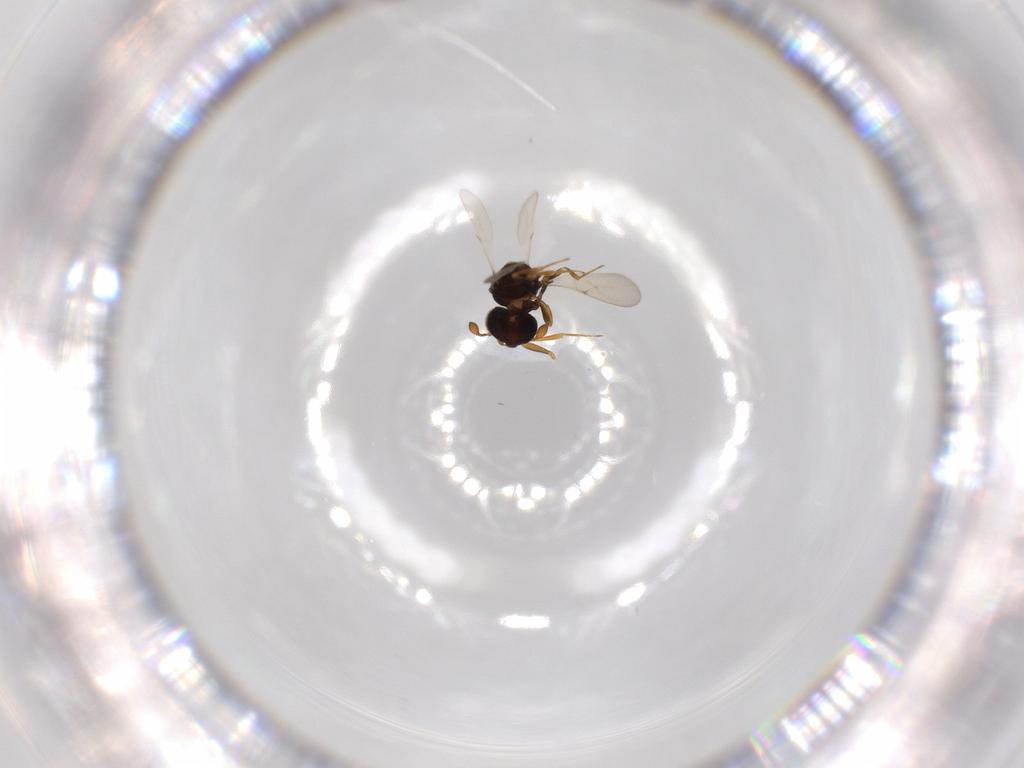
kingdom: Animalia
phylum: Arthropoda
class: Insecta
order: Hymenoptera
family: Scelionidae
